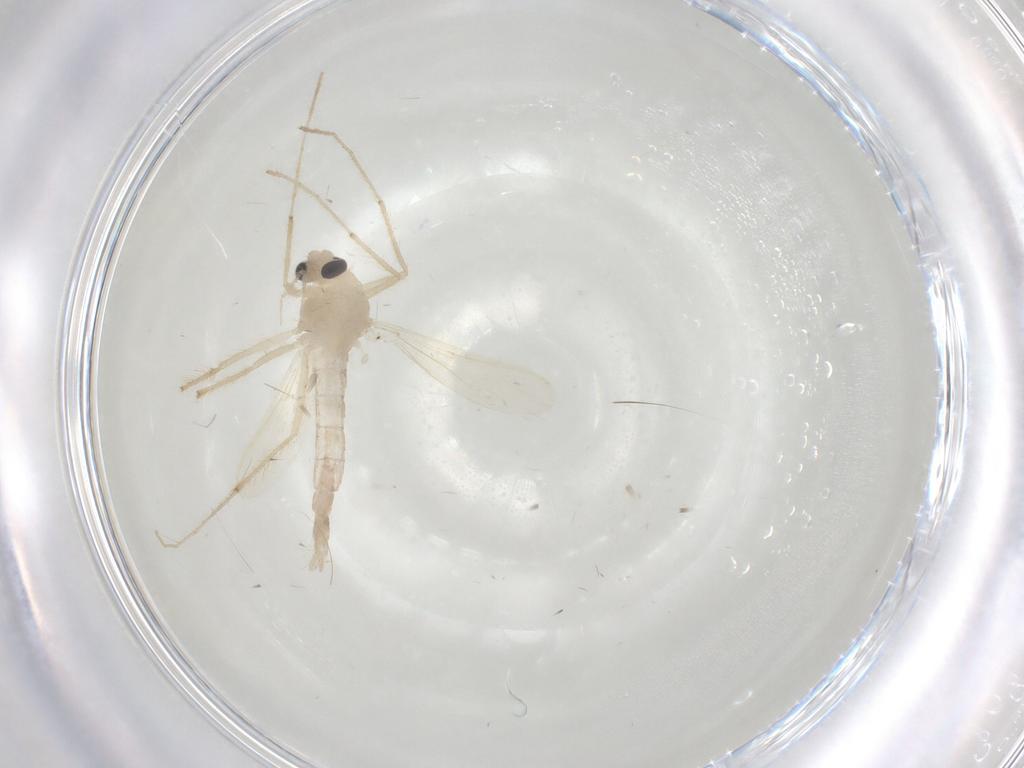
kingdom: Animalia
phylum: Arthropoda
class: Insecta
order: Diptera
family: Chironomidae
